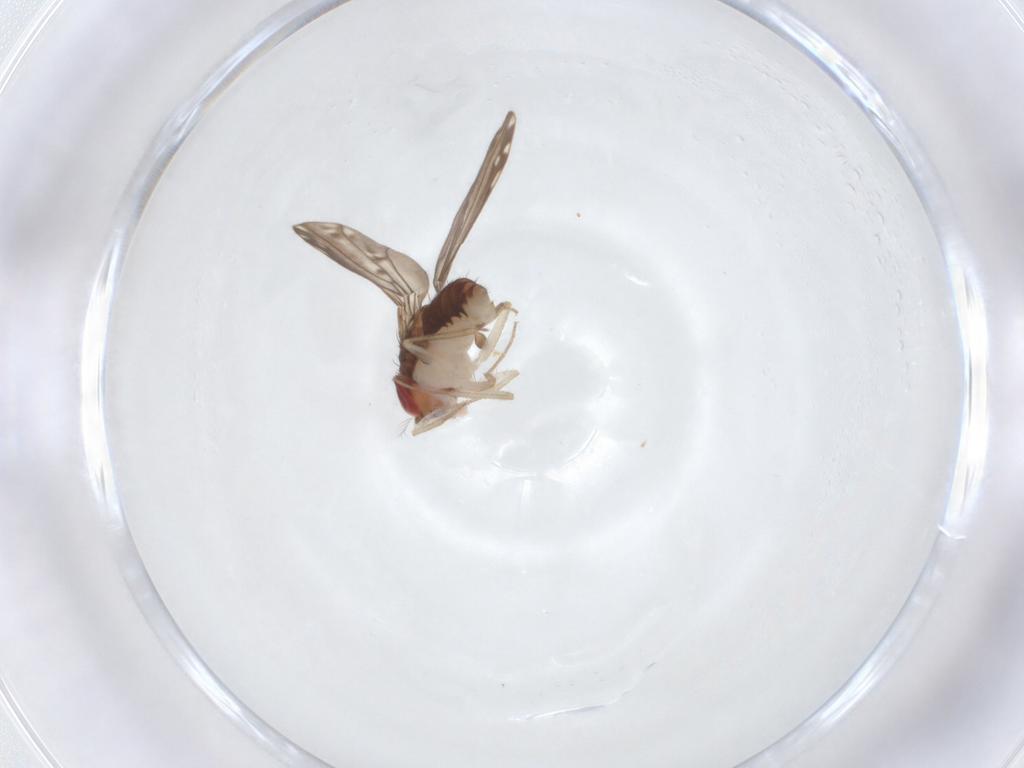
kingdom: Animalia
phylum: Arthropoda
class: Insecta
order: Diptera
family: Drosophilidae
